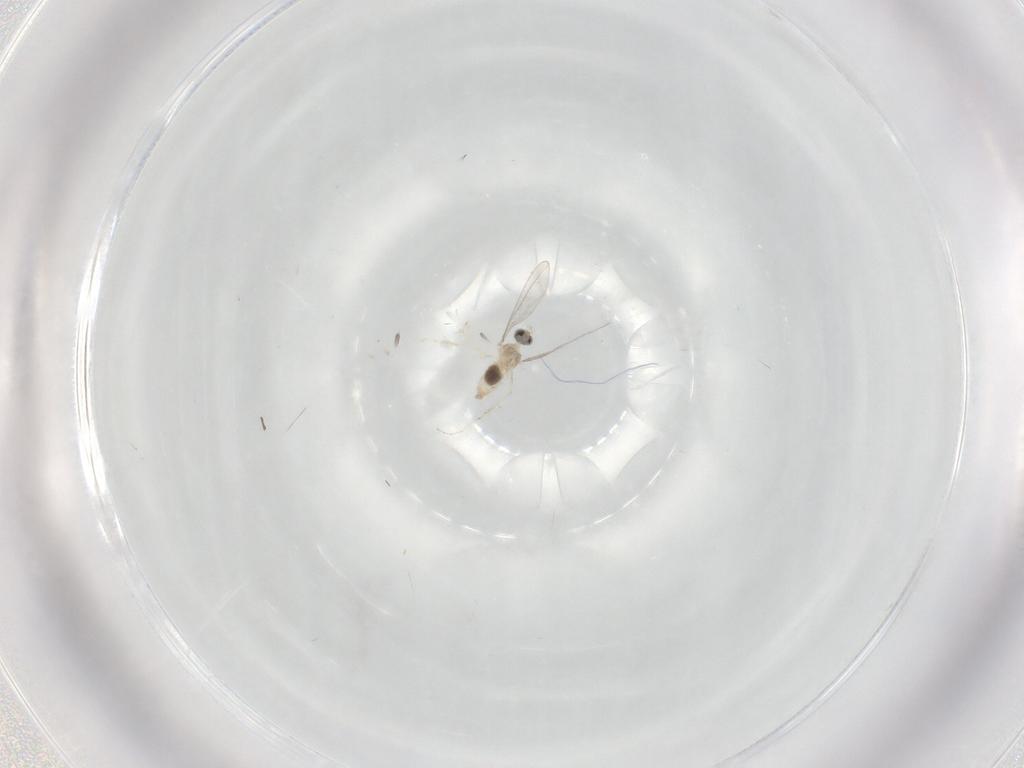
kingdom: Animalia
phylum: Arthropoda
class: Insecta
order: Diptera
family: Cecidomyiidae
